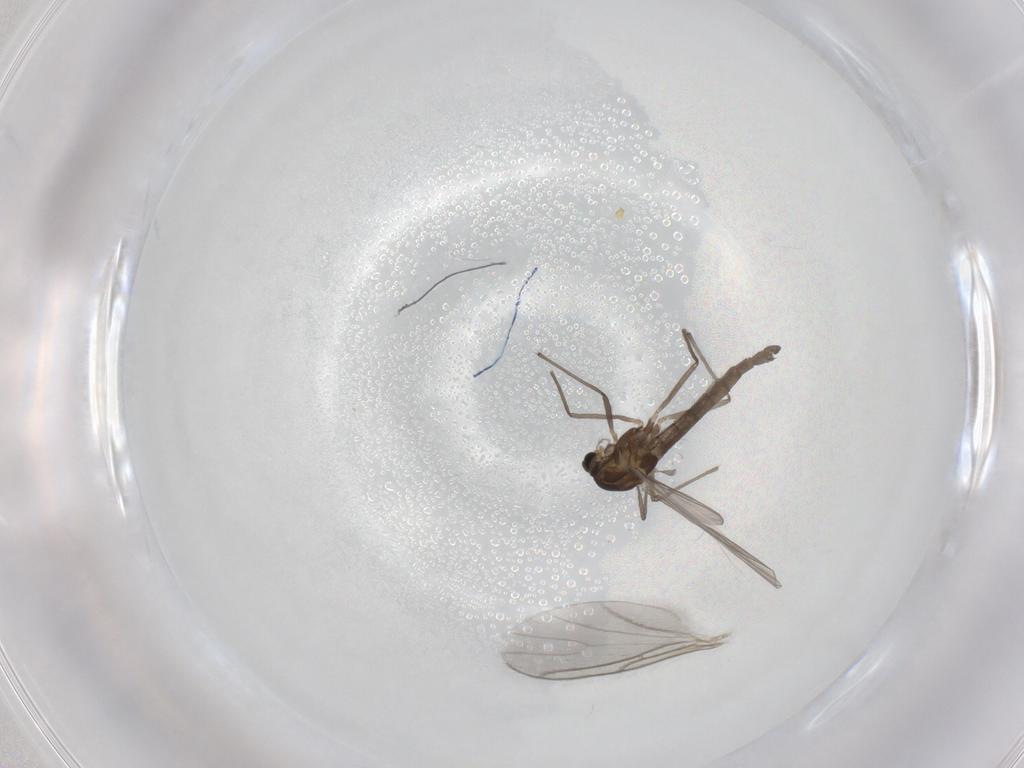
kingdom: Animalia
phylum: Arthropoda
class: Insecta
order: Diptera
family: Chironomidae
